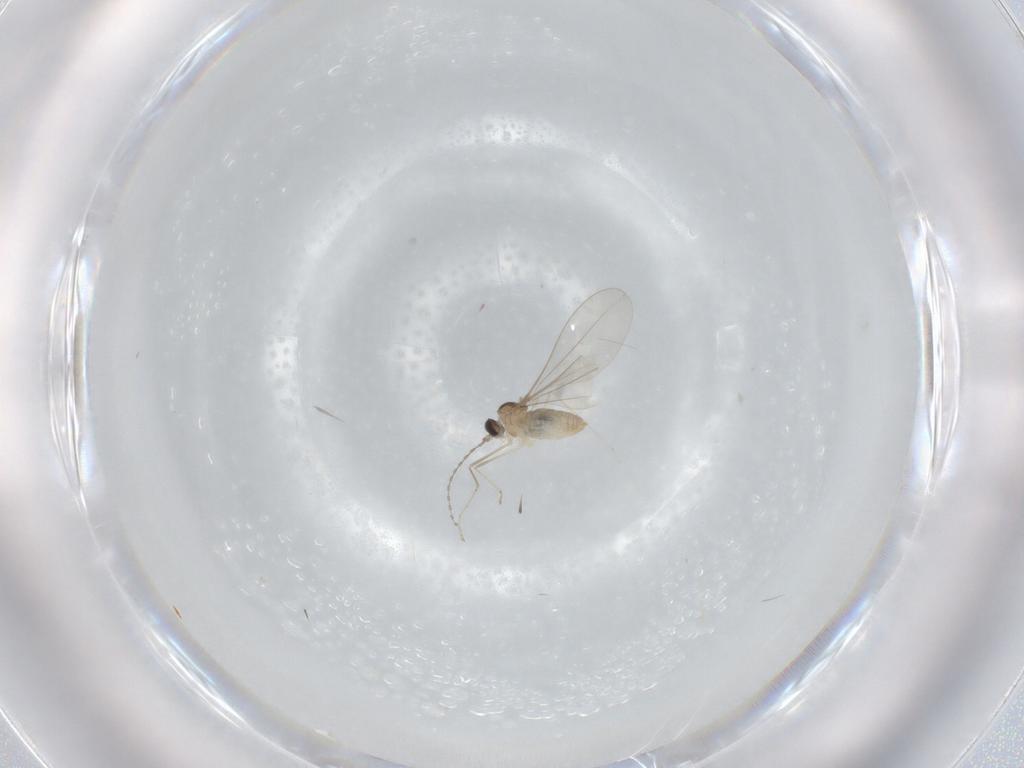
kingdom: Animalia
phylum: Arthropoda
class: Insecta
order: Diptera
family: Cecidomyiidae
